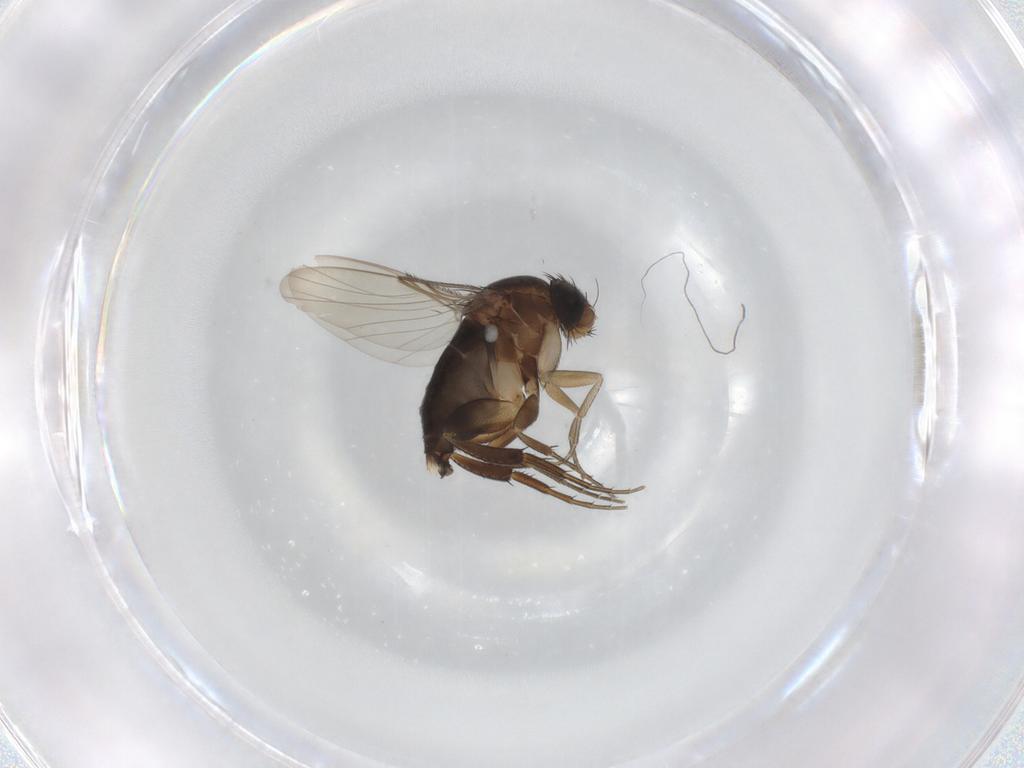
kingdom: Animalia
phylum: Arthropoda
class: Insecta
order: Diptera
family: Phoridae
